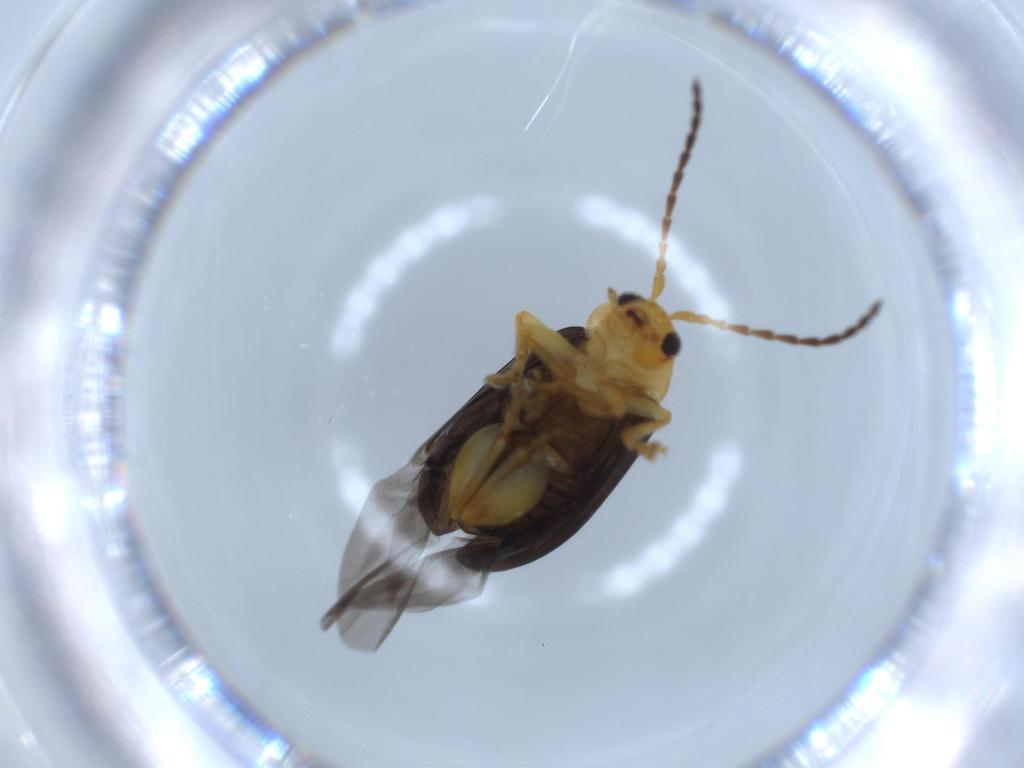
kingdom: Animalia
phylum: Arthropoda
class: Insecta
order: Coleoptera
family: Chrysomelidae
